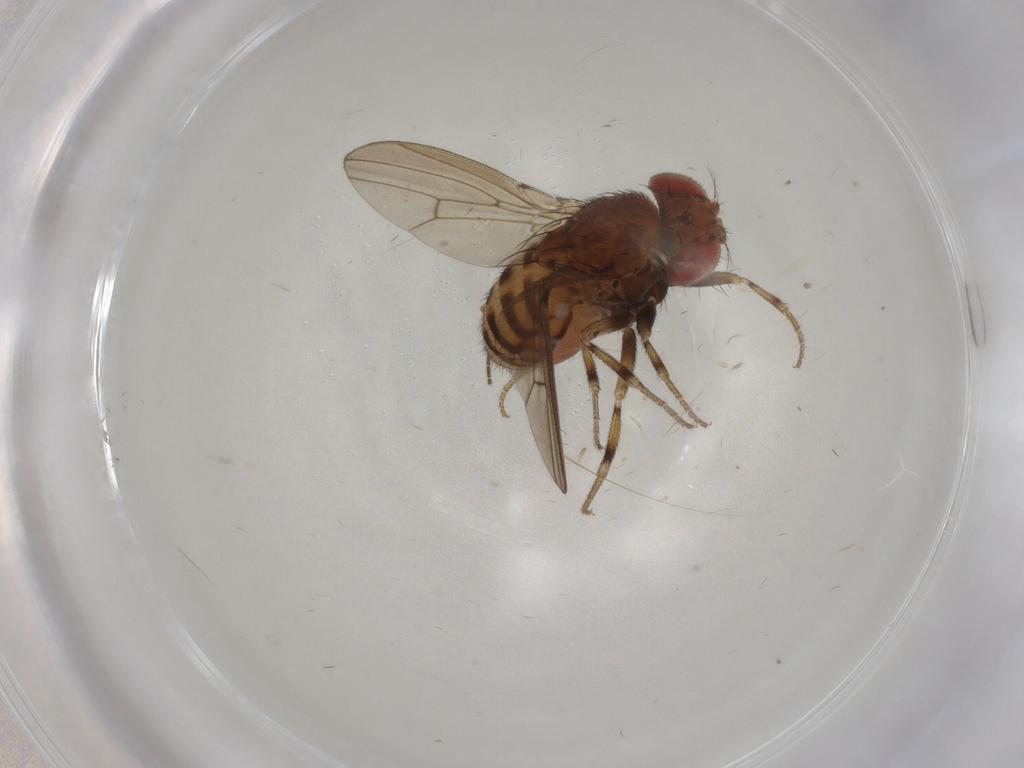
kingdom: Animalia
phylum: Arthropoda
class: Insecta
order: Diptera
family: Drosophilidae
